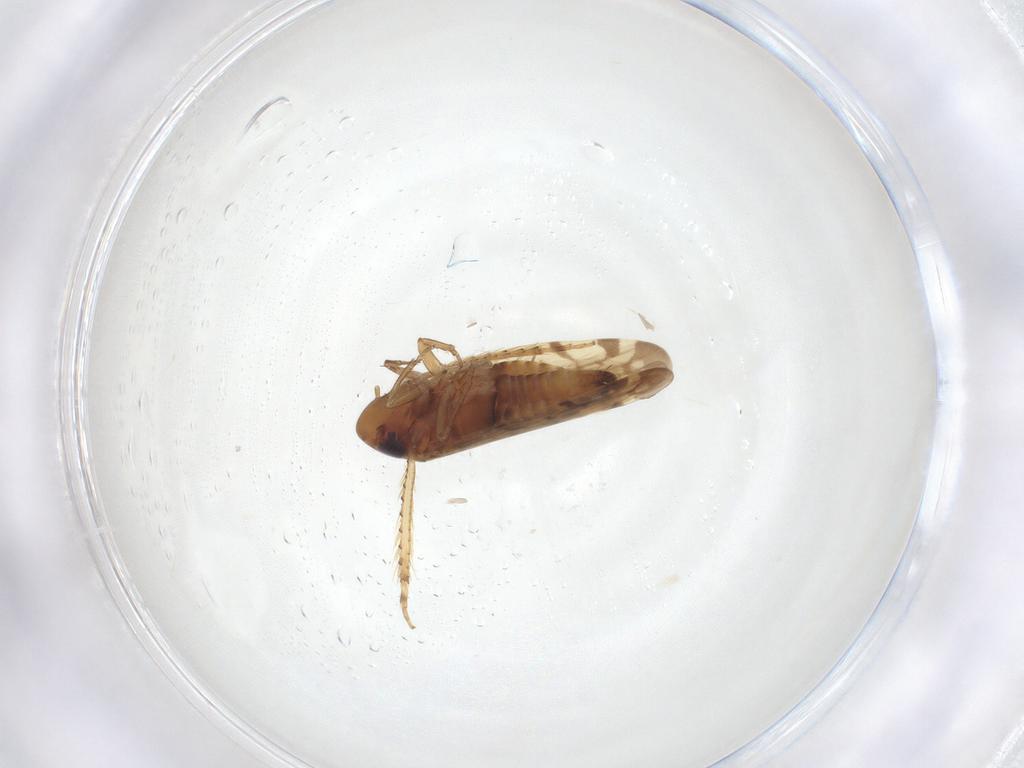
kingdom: Animalia
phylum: Arthropoda
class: Insecta
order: Hemiptera
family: Cicadellidae
